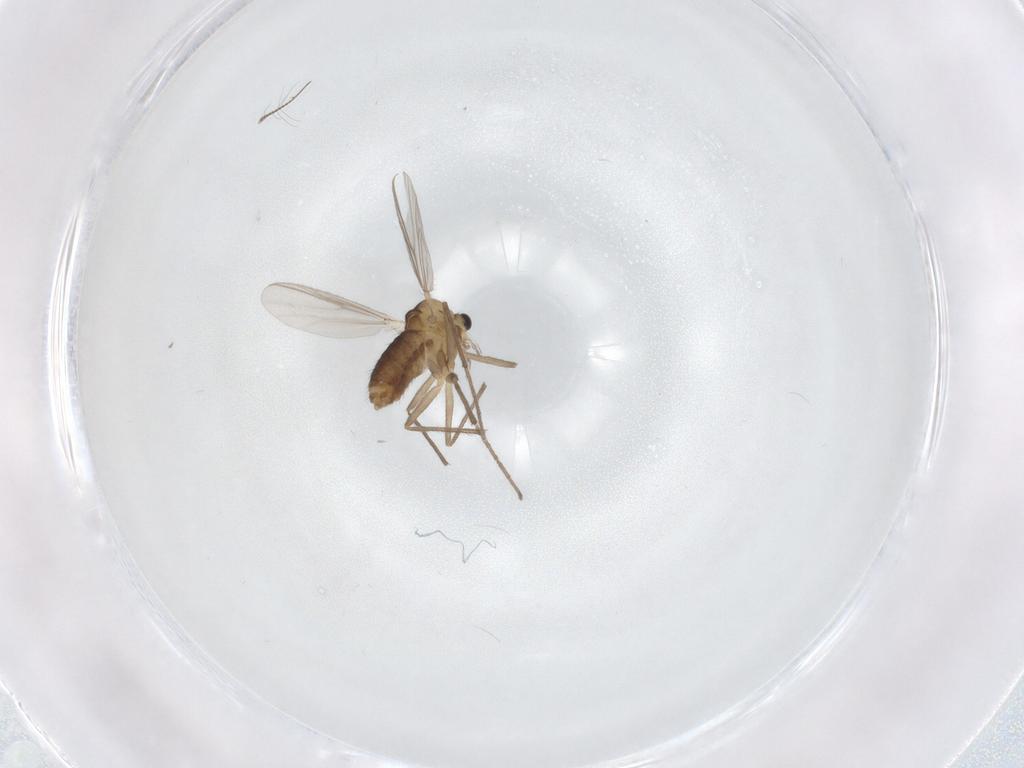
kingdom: Animalia
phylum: Arthropoda
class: Insecta
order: Diptera
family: Chironomidae
